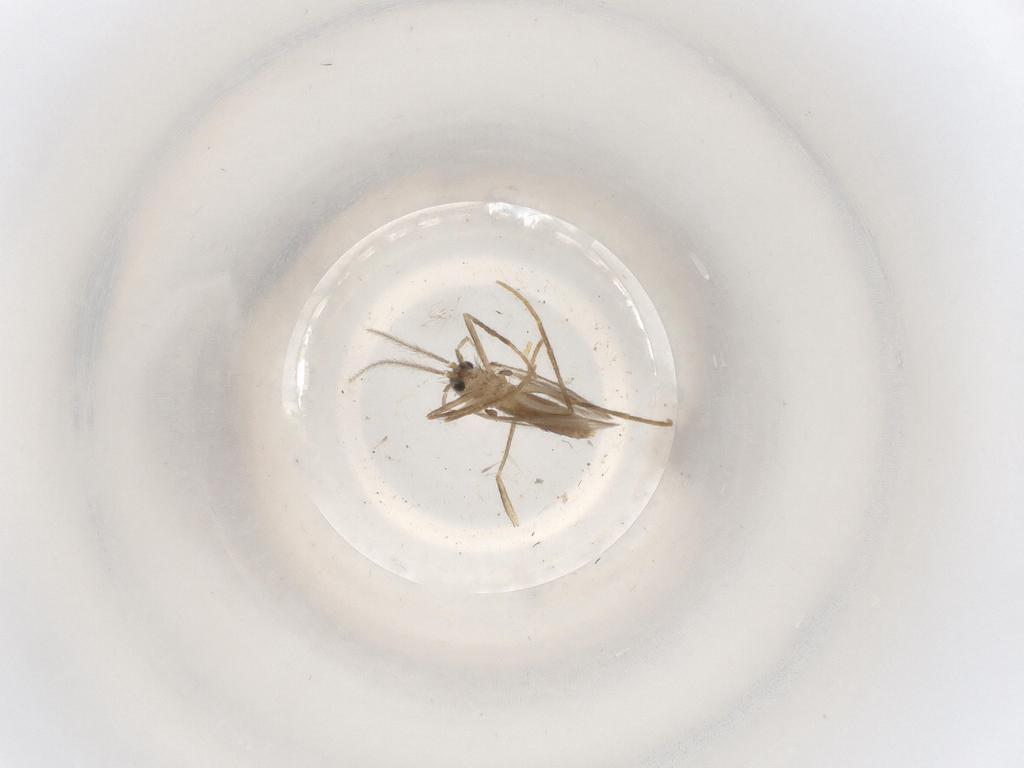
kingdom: Animalia
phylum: Arthropoda
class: Insecta
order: Diptera
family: Psychodidae
